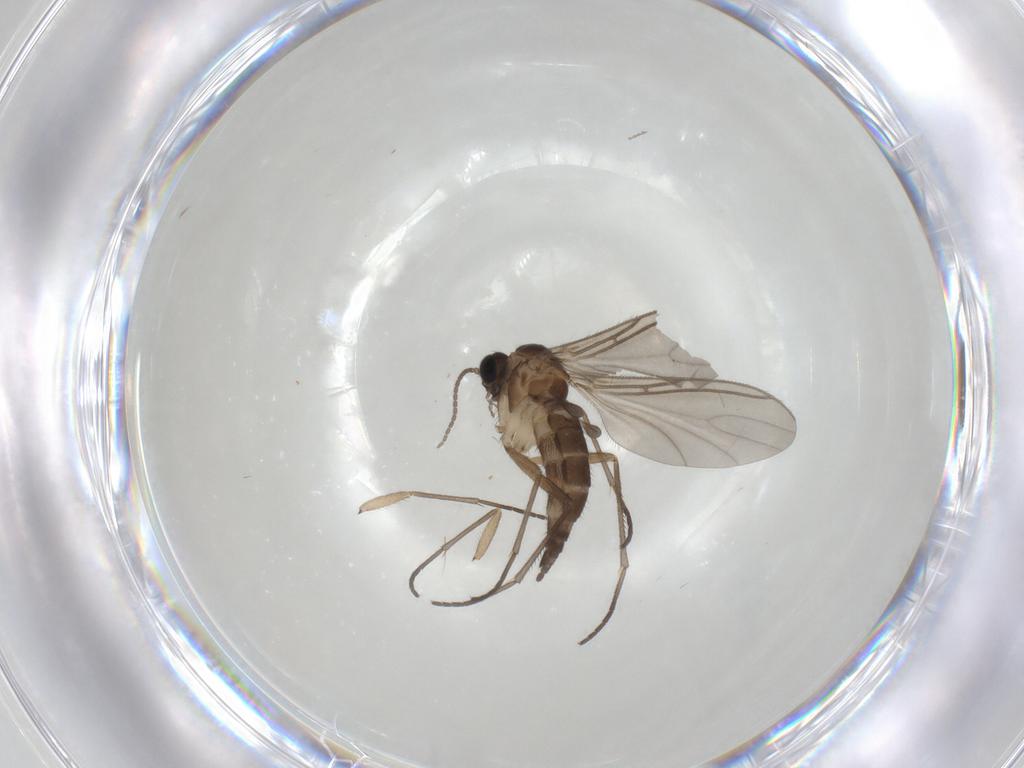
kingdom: Animalia
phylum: Arthropoda
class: Insecta
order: Diptera
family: Sciaridae
